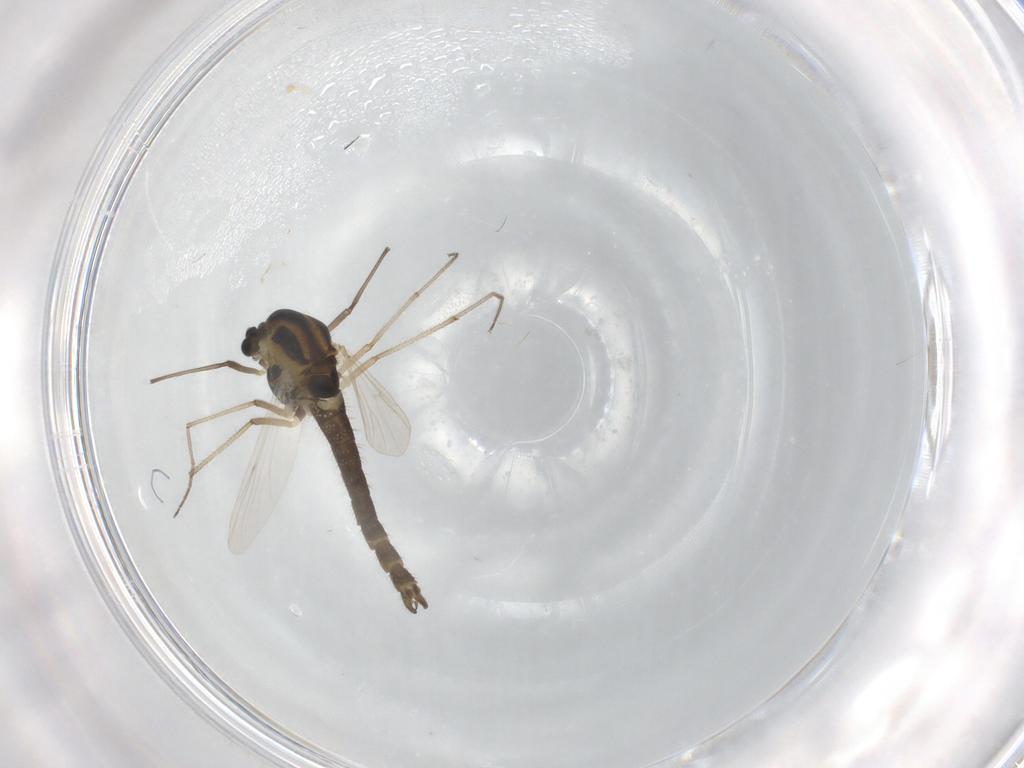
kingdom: Animalia
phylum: Arthropoda
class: Insecta
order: Diptera
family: Chironomidae
